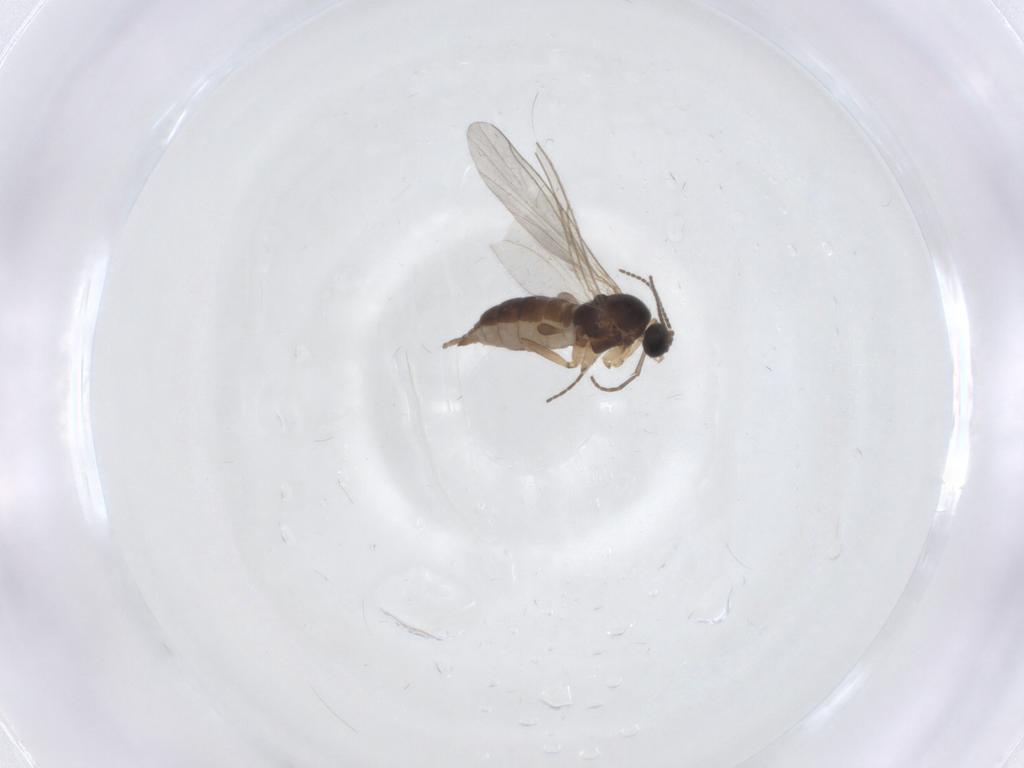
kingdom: Animalia
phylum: Arthropoda
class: Insecta
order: Diptera
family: Sciaridae
